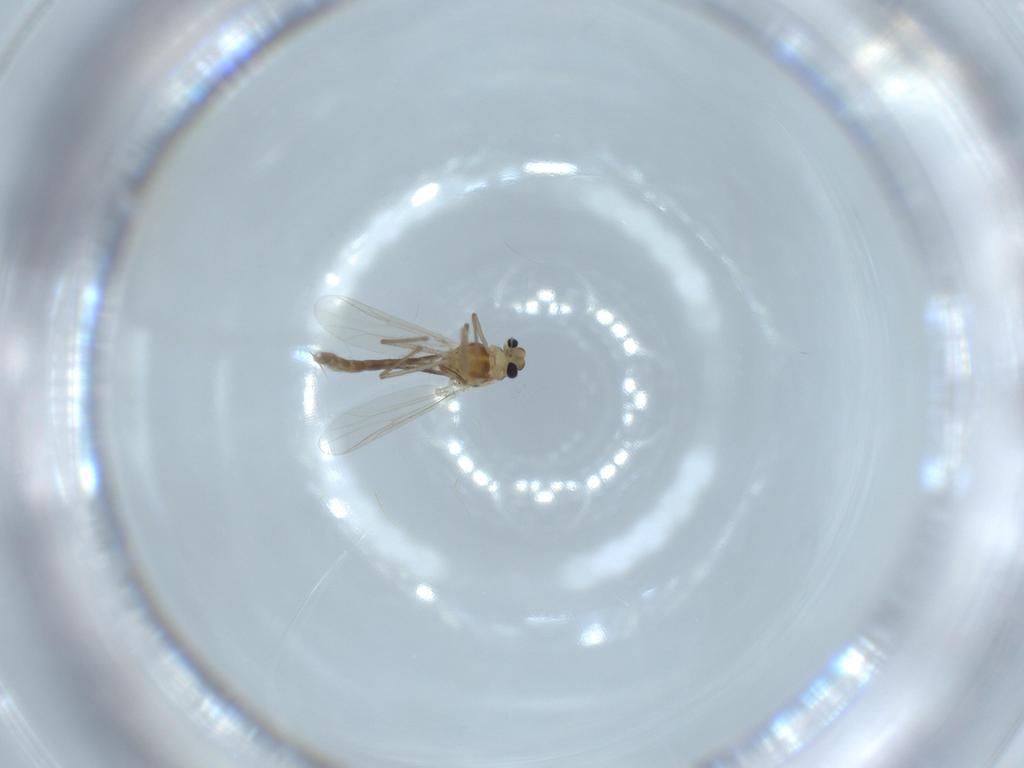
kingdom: Animalia
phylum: Arthropoda
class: Insecta
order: Diptera
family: Chironomidae
